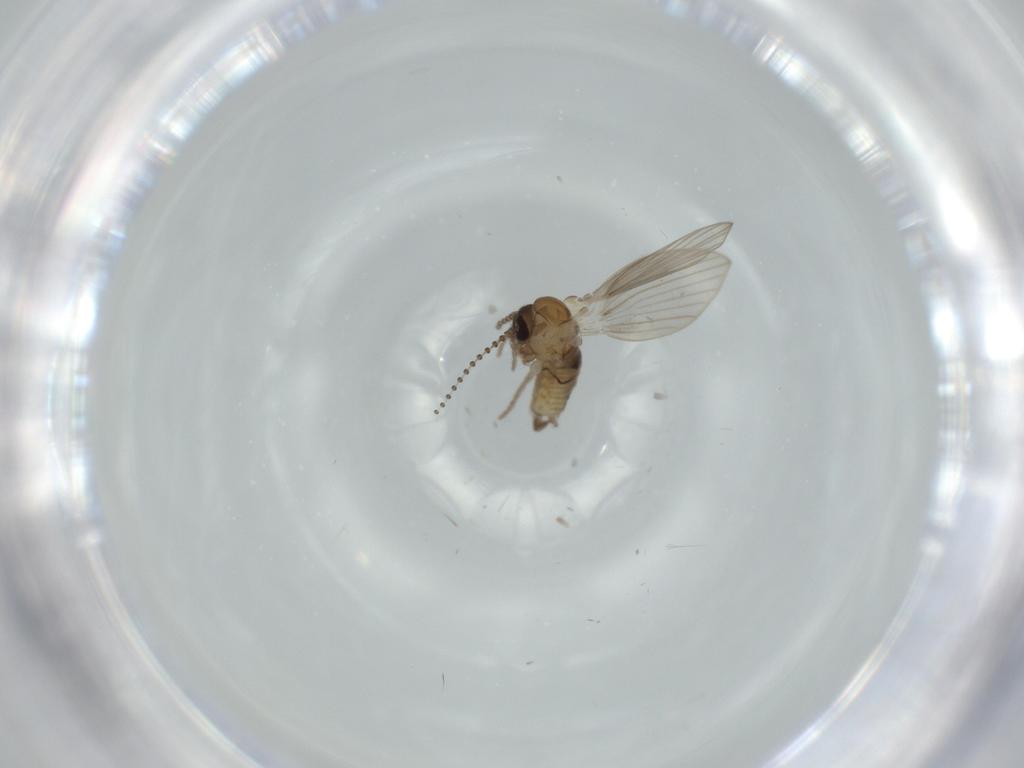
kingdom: Animalia
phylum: Arthropoda
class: Insecta
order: Diptera
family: Psychodidae
